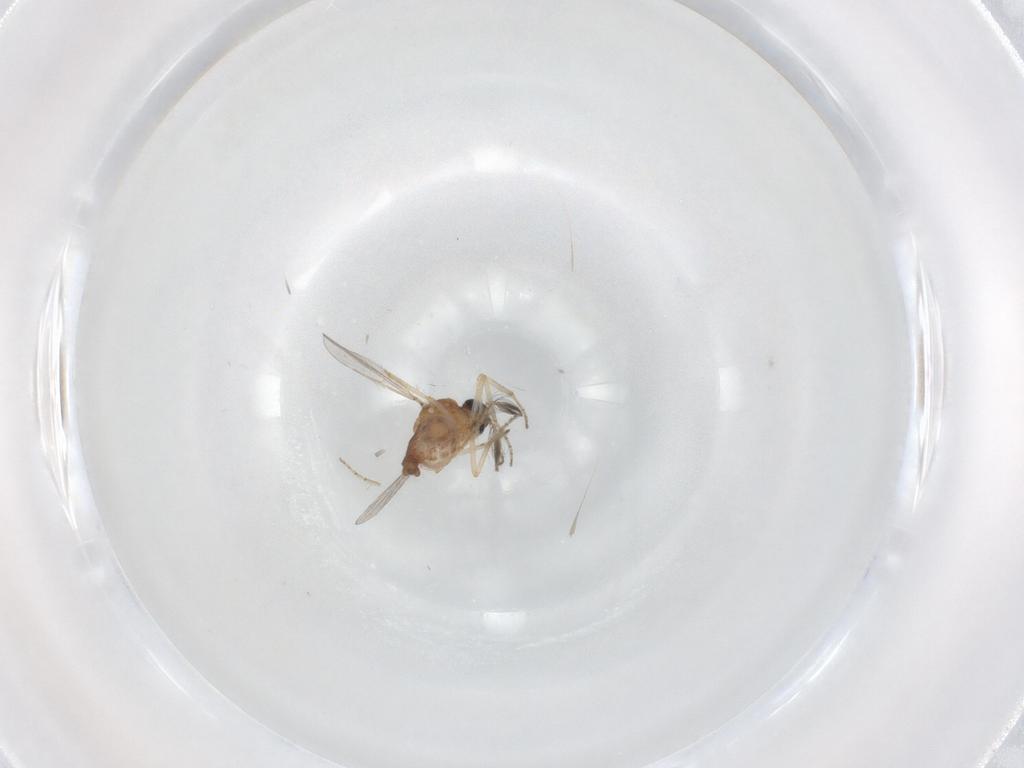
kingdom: Animalia
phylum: Arthropoda
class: Insecta
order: Diptera
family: Ceratopogonidae
